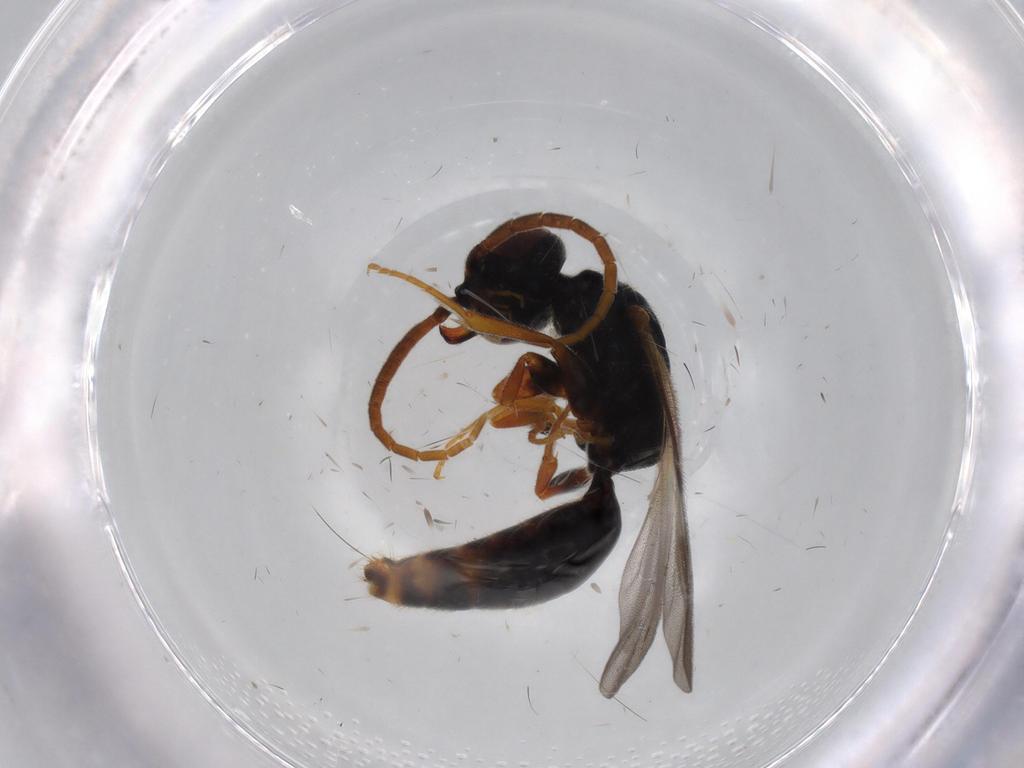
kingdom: Animalia
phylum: Arthropoda
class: Insecta
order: Hymenoptera
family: Bethylidae
